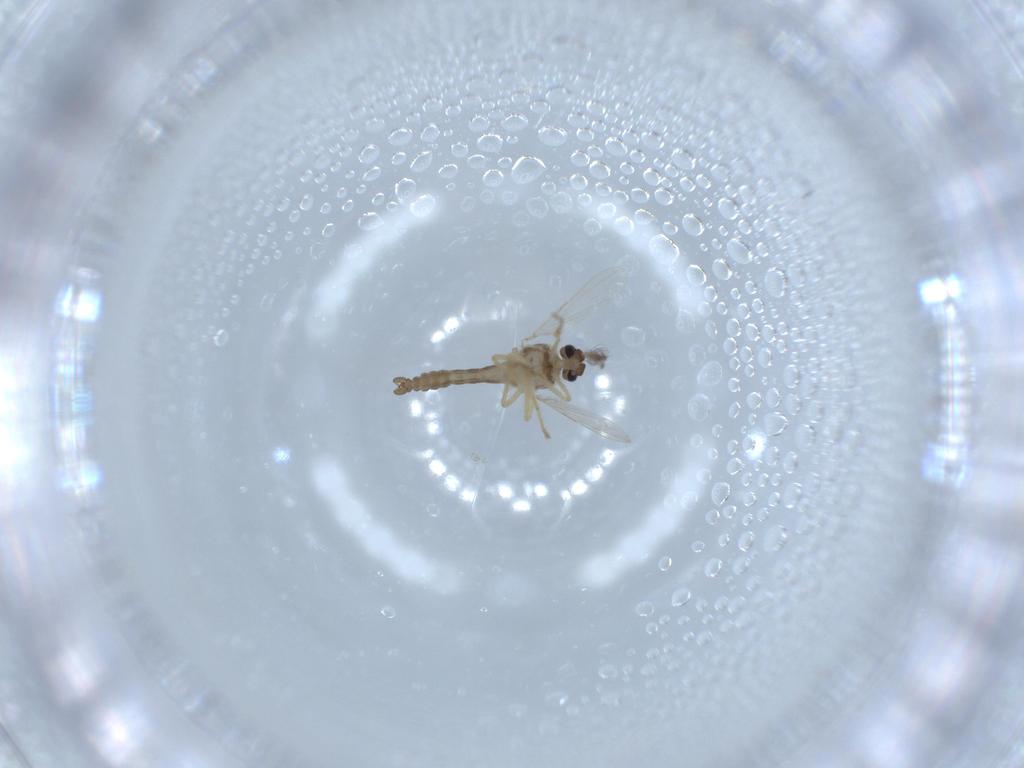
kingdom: Animalia
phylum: Arthropoda
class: Insecta
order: Diptera
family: Ceratopogonidae
